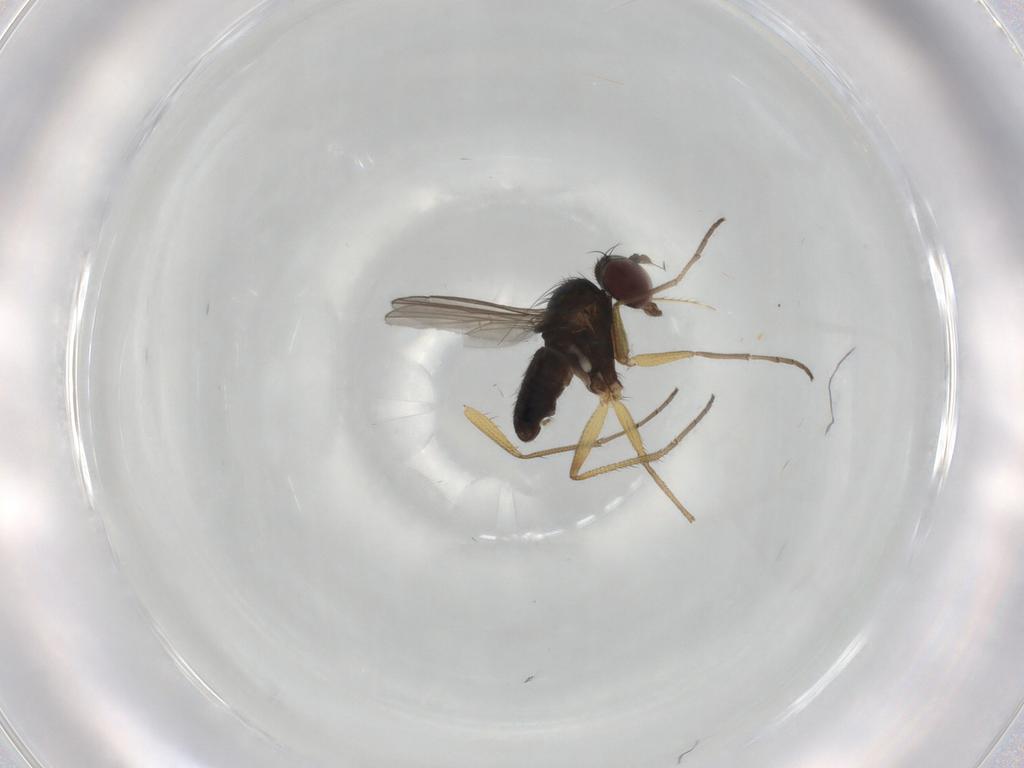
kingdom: Animalia
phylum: Arthropoda
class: Insecta
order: Diptera
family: Dolichopodidae
